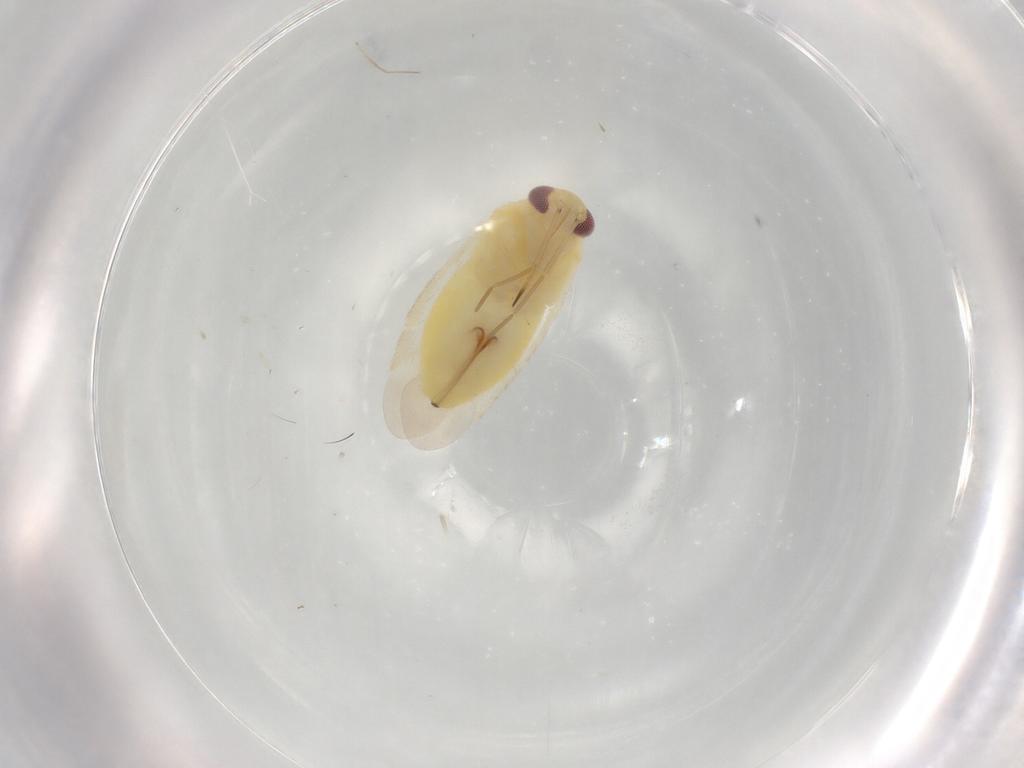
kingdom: Animalia
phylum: Arthropoda
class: Insecta
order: Hemiptera
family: Miridae
